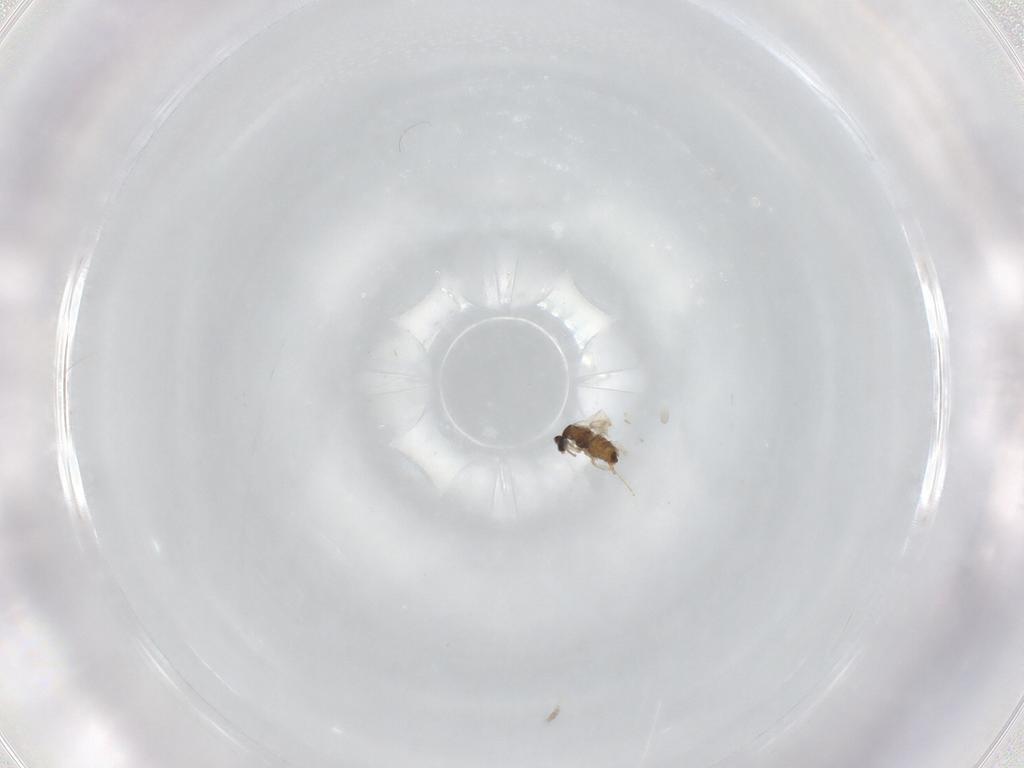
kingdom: Animalia
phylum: Arthropoda
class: Insecta
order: Diptera
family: Cecidomyiidae
